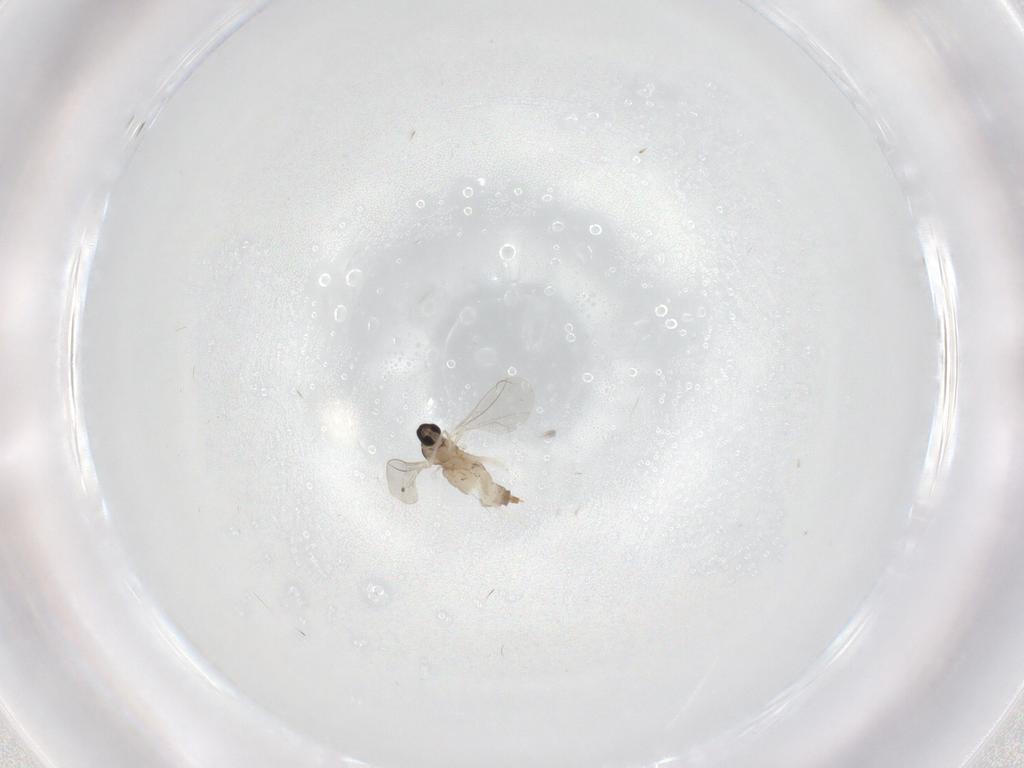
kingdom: Animalia
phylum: Arthropoda
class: Insecta
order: Diptera
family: Cecidomyiidae
